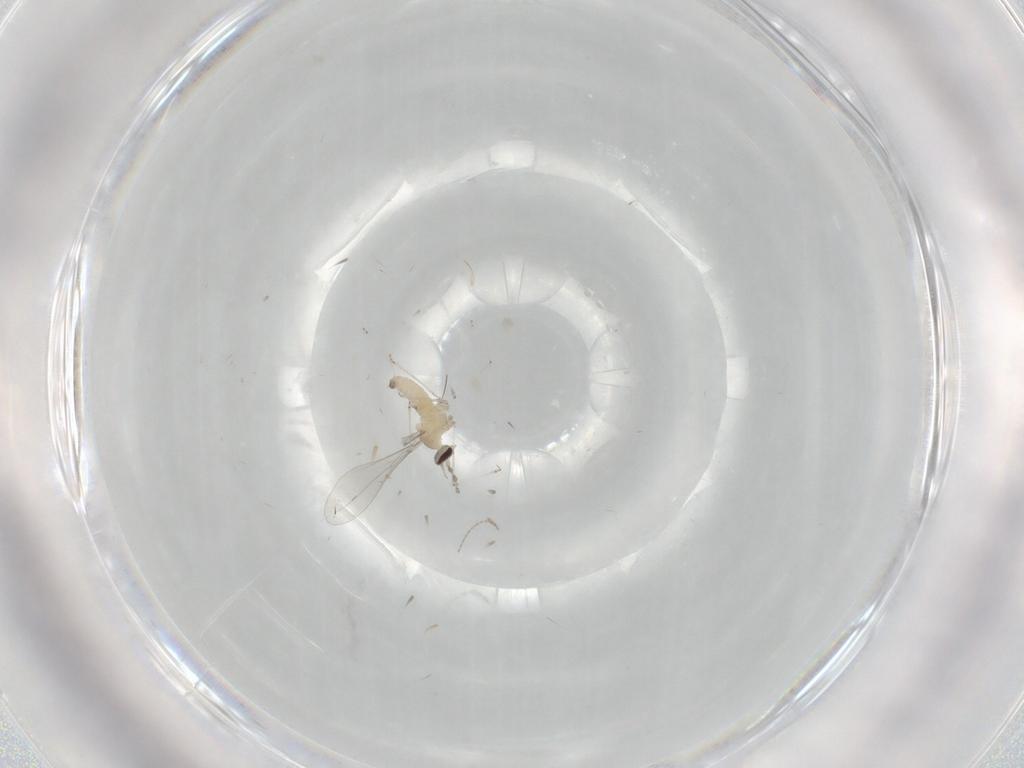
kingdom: Animalia
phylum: Arthropoda
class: Insecta
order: Diptera
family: Cecidomyiidae
